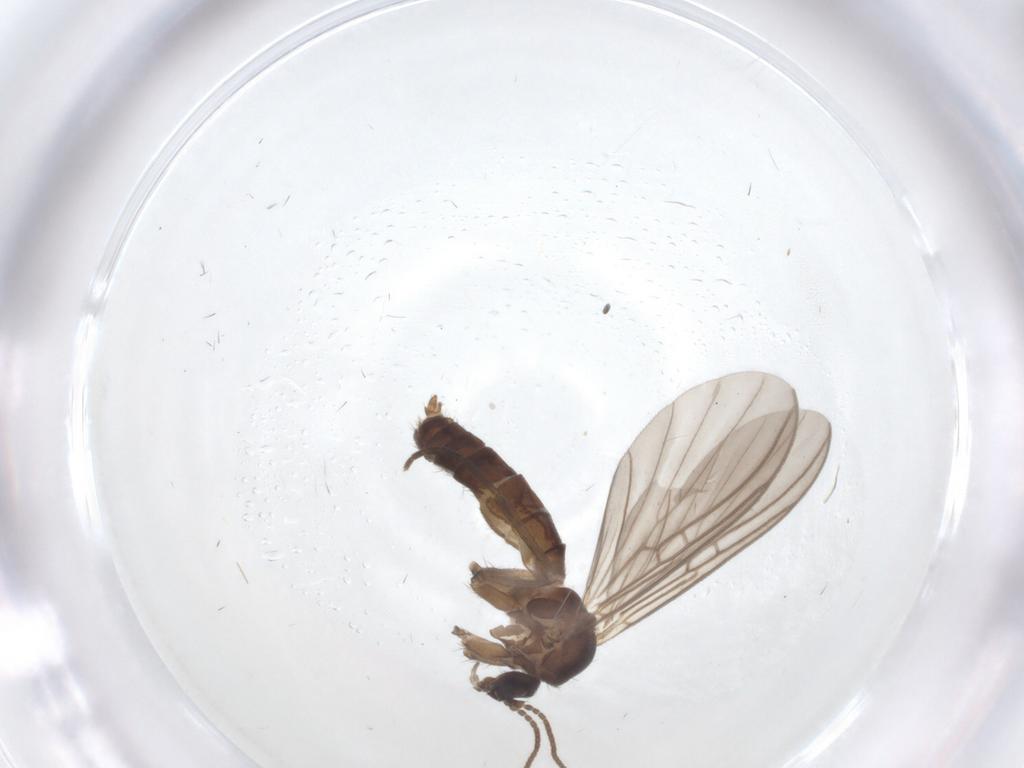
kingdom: Animalia
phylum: Arthropoda
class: Insecta
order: Diptera
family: Mycetophilidae
